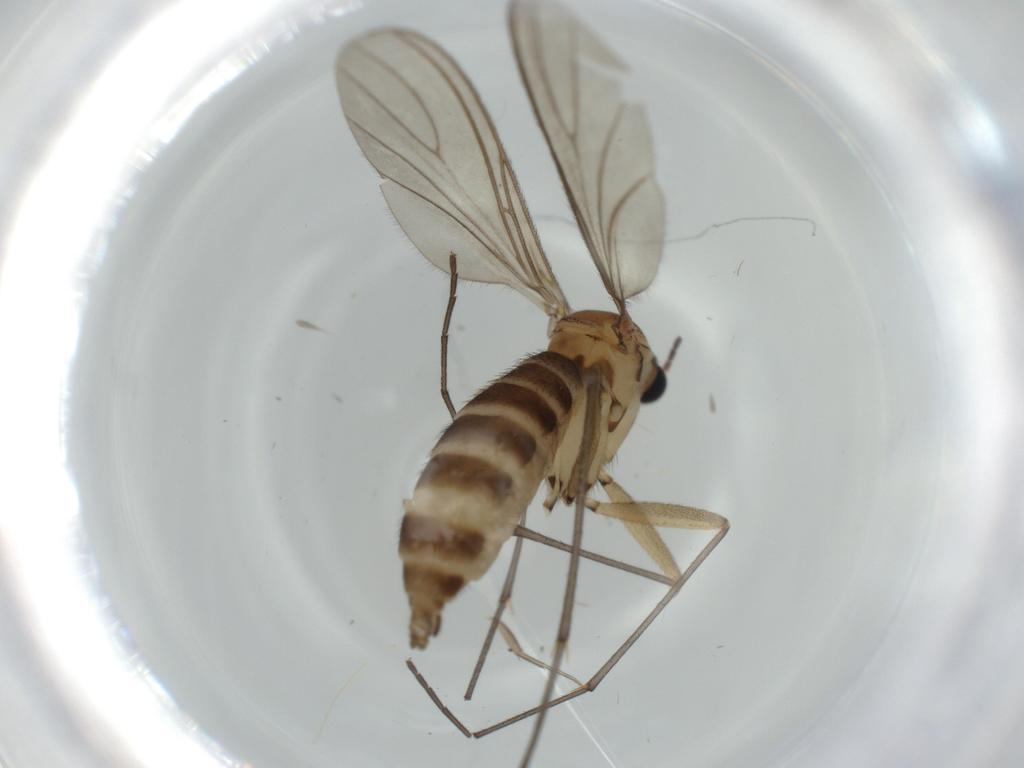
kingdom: Animalia
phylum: Arthropoda
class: Insecta
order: Diptera
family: Sciaridae
